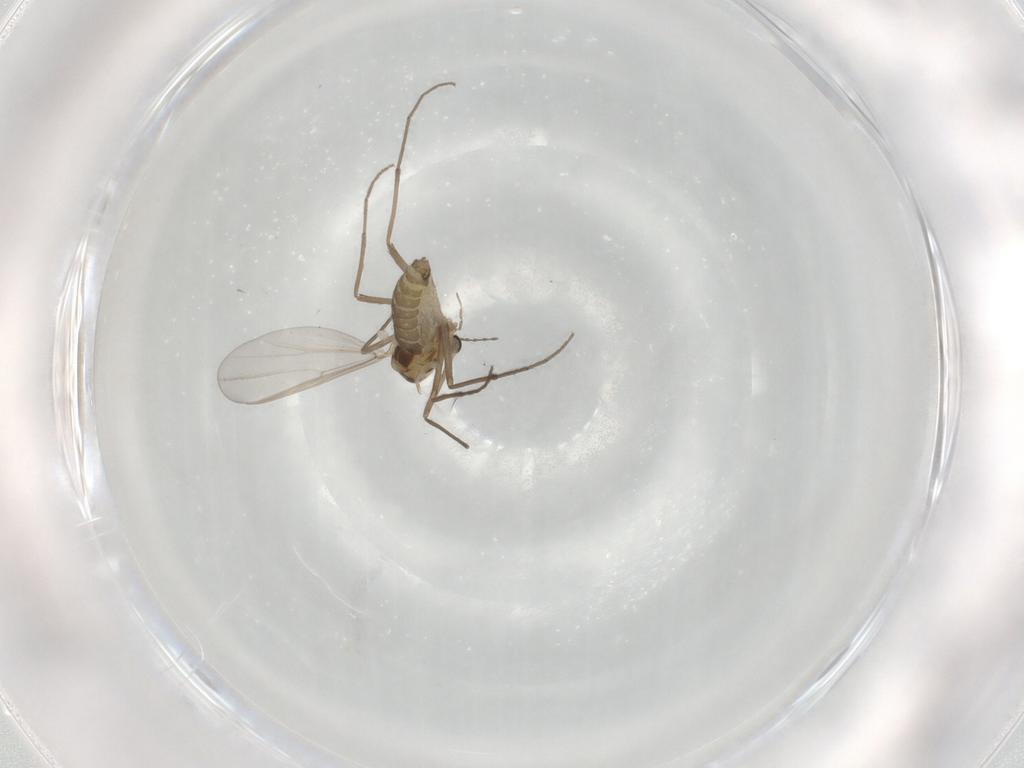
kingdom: Animalia
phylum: Arthropoda
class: Insecta
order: Diptera
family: Chironomidae
